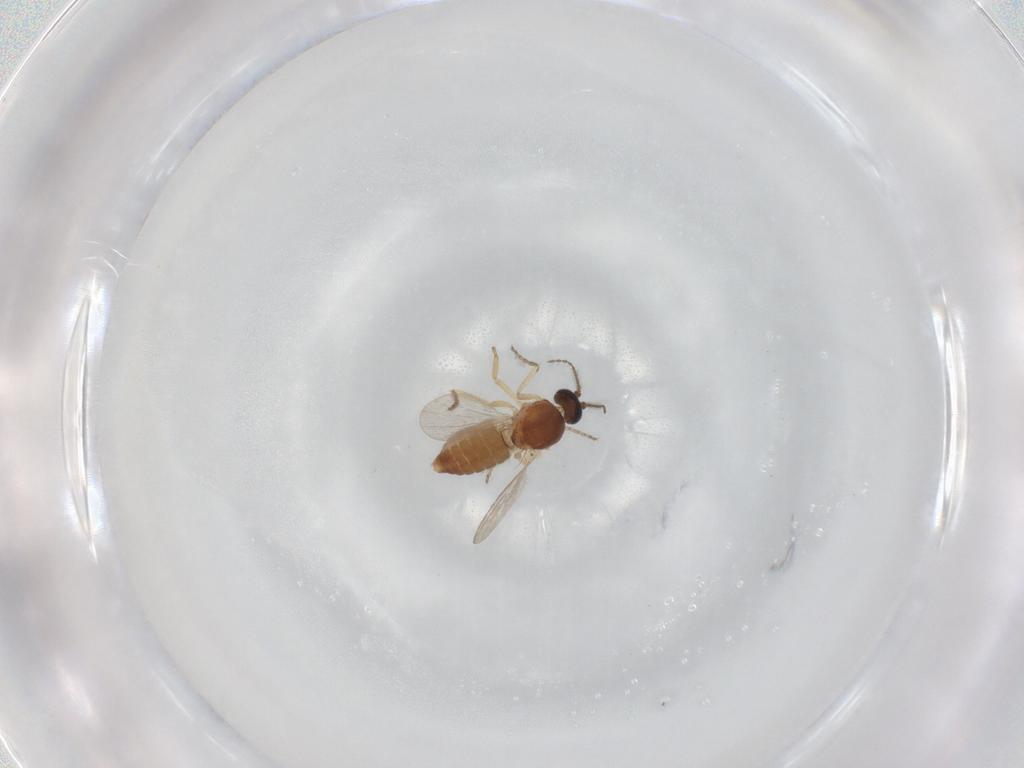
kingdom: Animalia
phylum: Arthropoda
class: Insecta
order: Diptera
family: Ceratopogonidae
